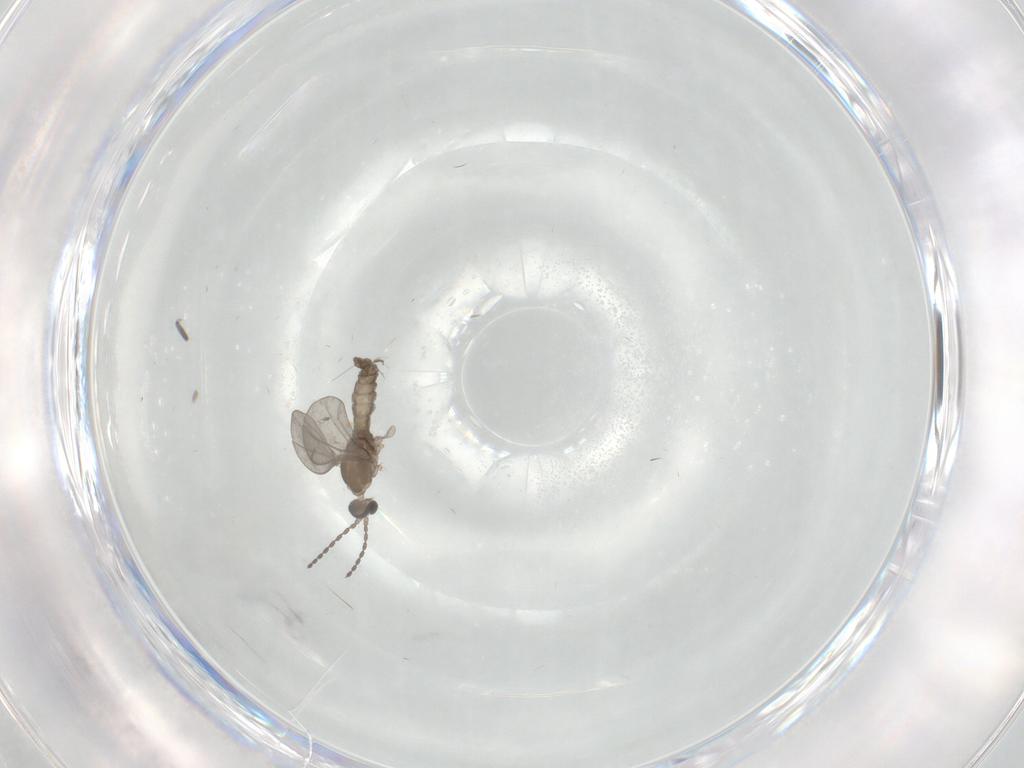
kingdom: Animalia
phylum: Arthropoda
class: Insecta
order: Diptera
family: Cecidomyiidae
